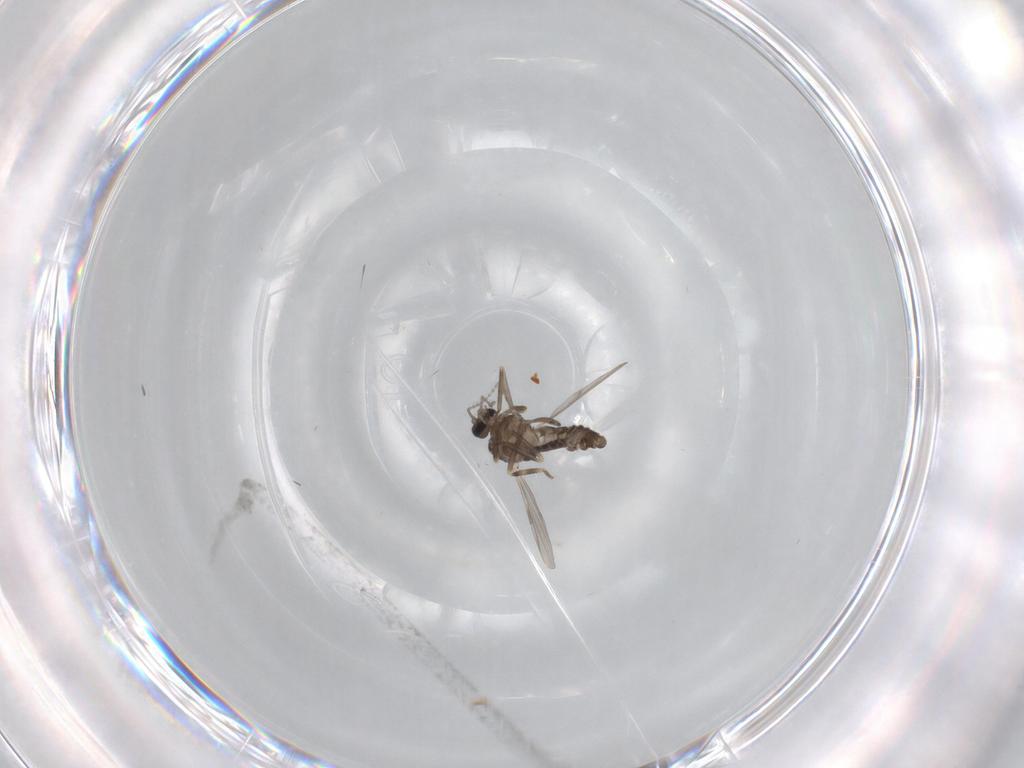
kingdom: Animalia
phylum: Arthropoda
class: Insecta
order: Diptera
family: Ceratopogonidae
